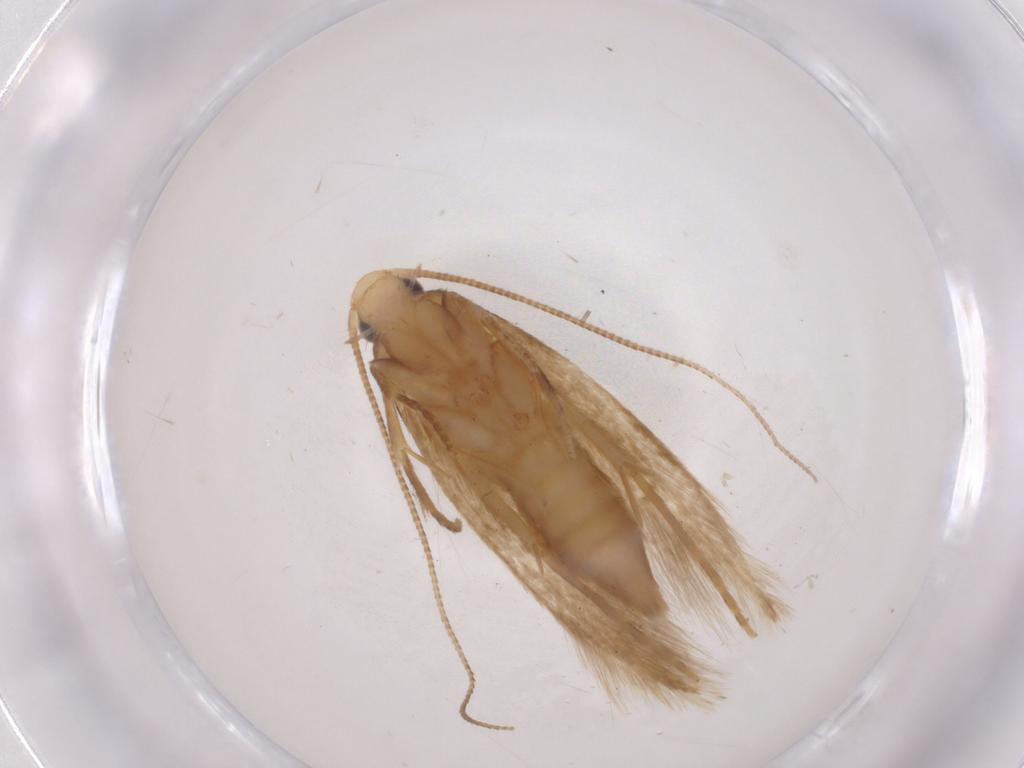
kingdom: Animalia
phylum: Arthropoda
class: Insecta
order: Lepidoptera
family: Tineidae
